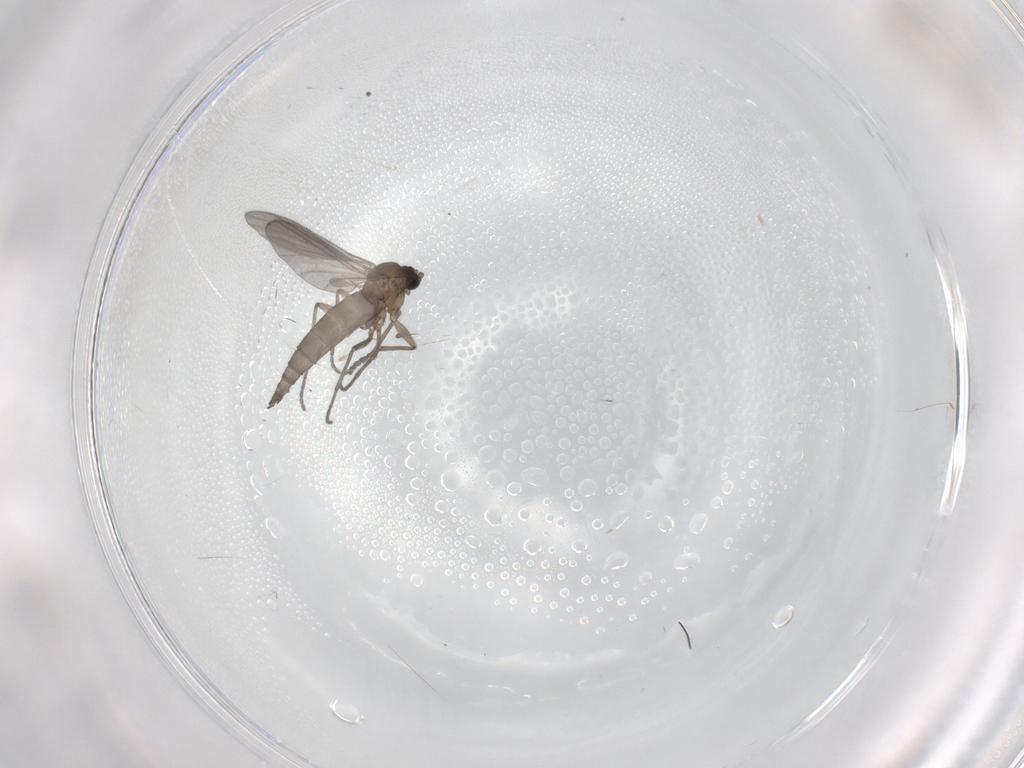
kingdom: Animalia
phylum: Arthropoda
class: Insecta
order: Diptera
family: Sciaridae
